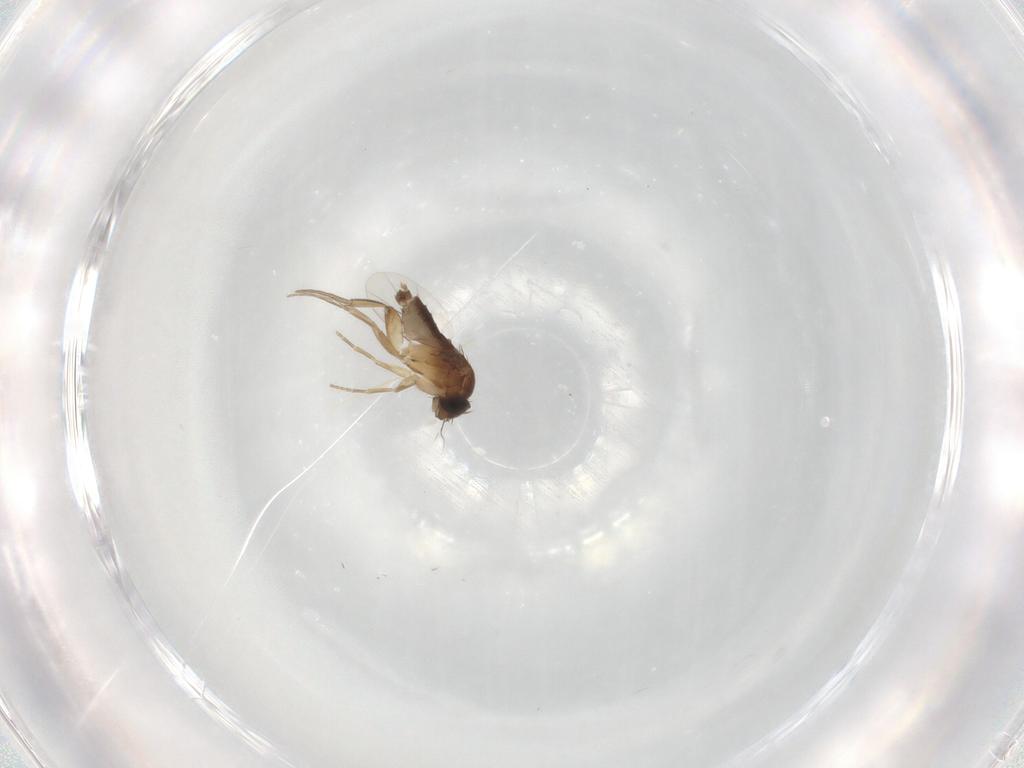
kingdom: Animalia
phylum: Arthropoda
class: Insecta
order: Diptera
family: Phoridae
